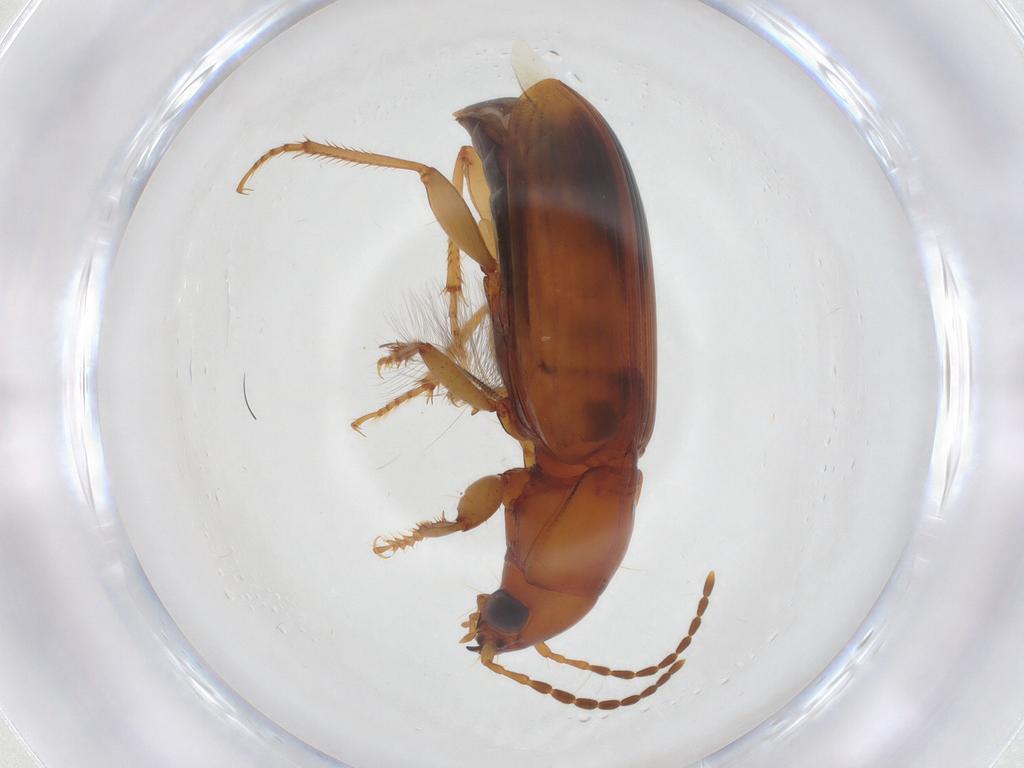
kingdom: Animalia
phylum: Arthropoda
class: Insecta
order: Coleoptera
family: Carabidae
